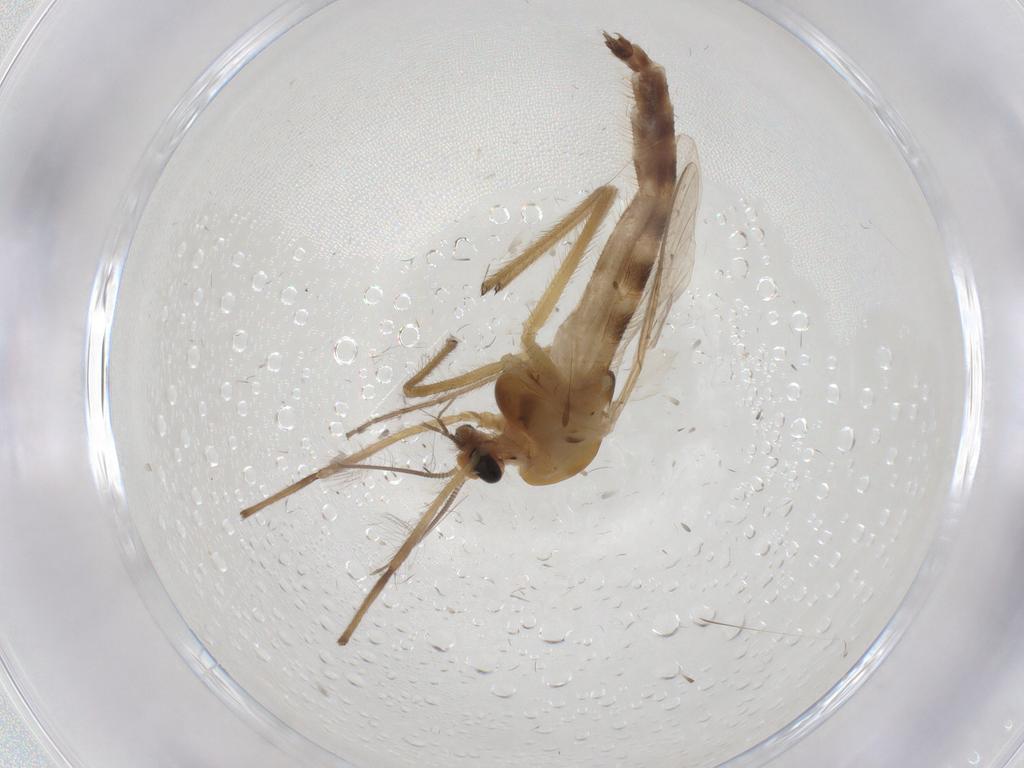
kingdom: Animalia
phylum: Arthropoda
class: Insecta
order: Diptera
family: Chironomidae
